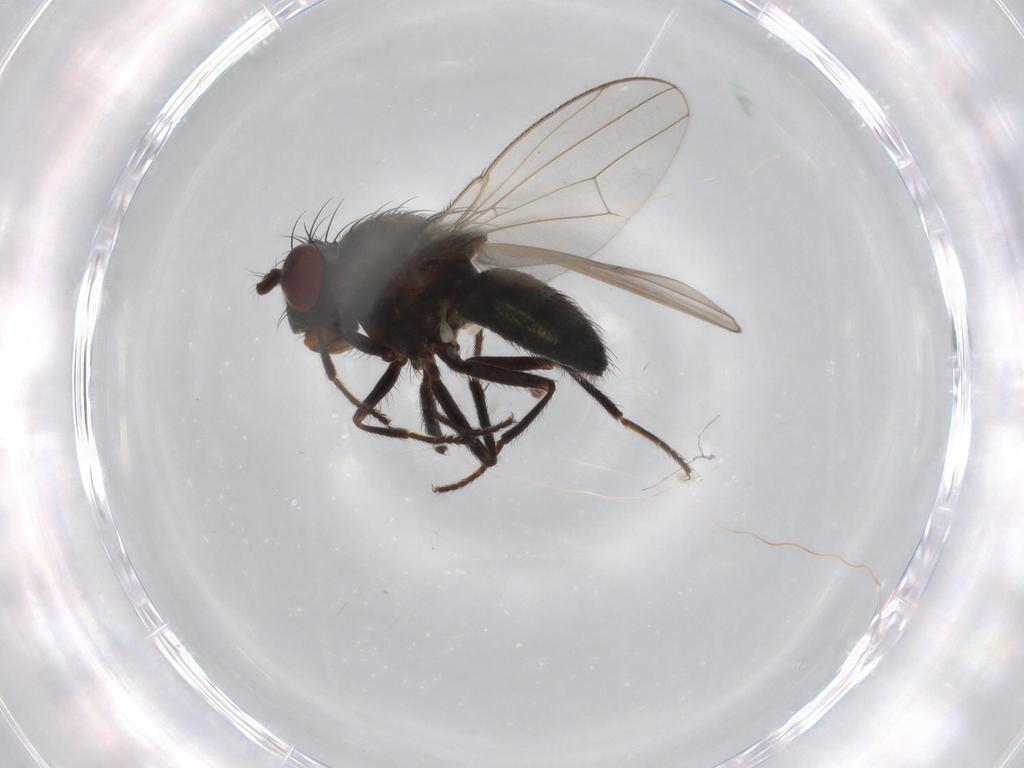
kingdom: Animalia
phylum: Arthropoda
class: Insecta
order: Diptera
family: Ephydridae
